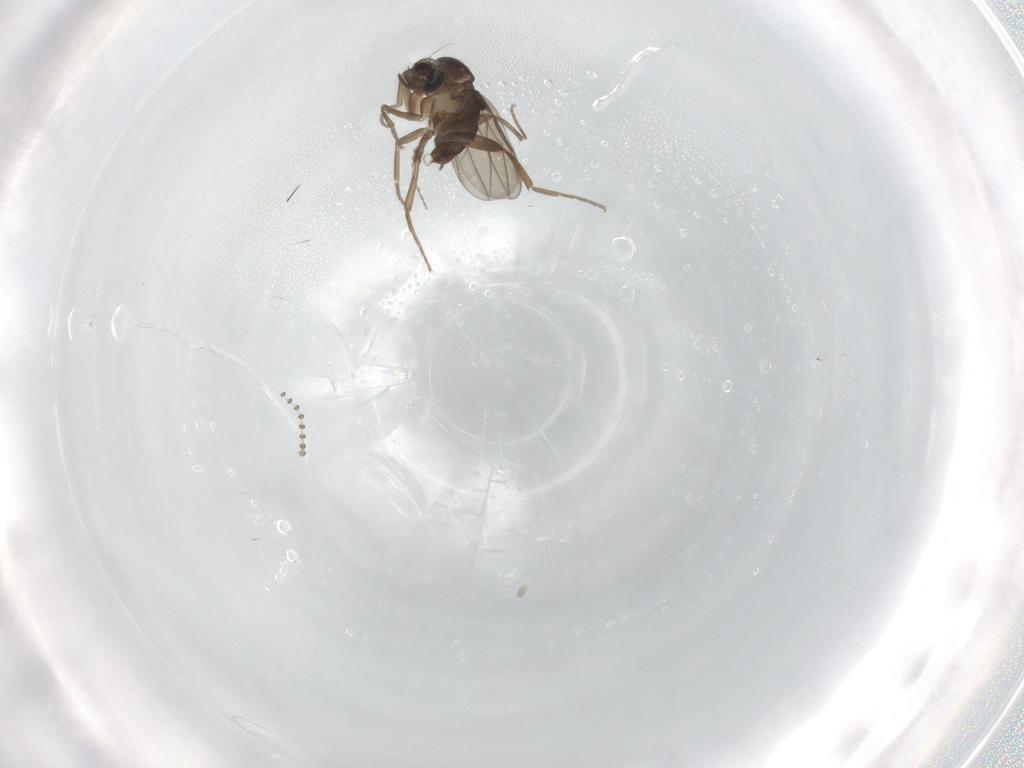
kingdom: Animalia
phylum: Arthropoda
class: Insecta
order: Diptera
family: Cecidomyiidae
